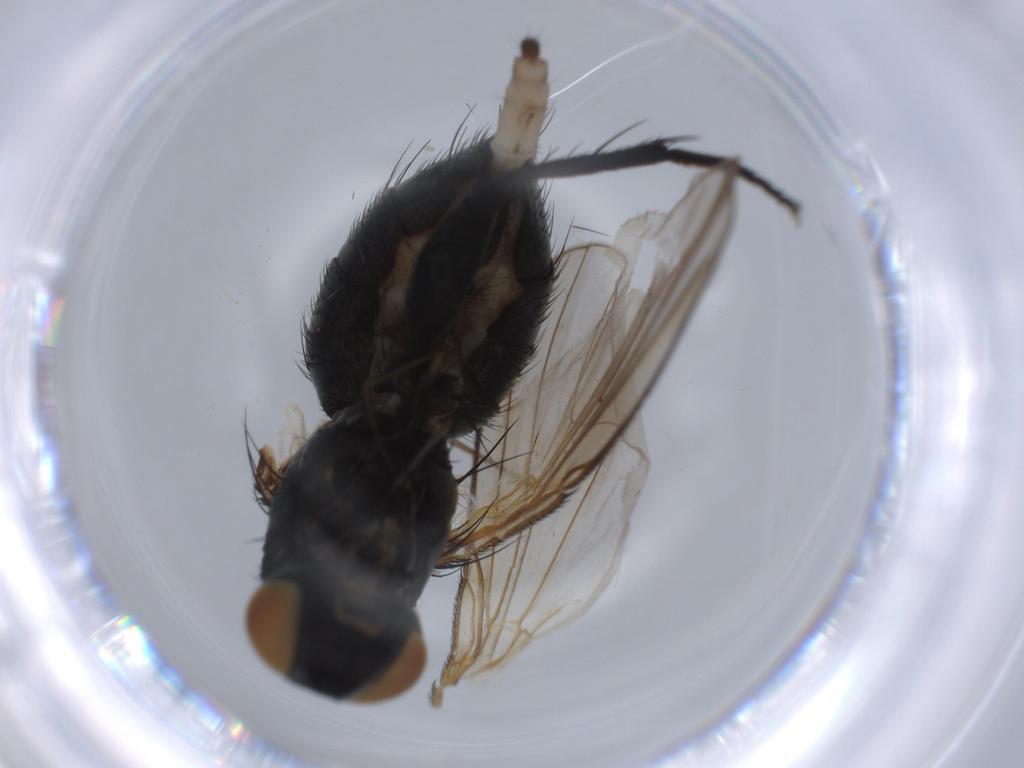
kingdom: Animalia
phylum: Arthropoda
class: Insecta
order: Diptera
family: Muscidae
